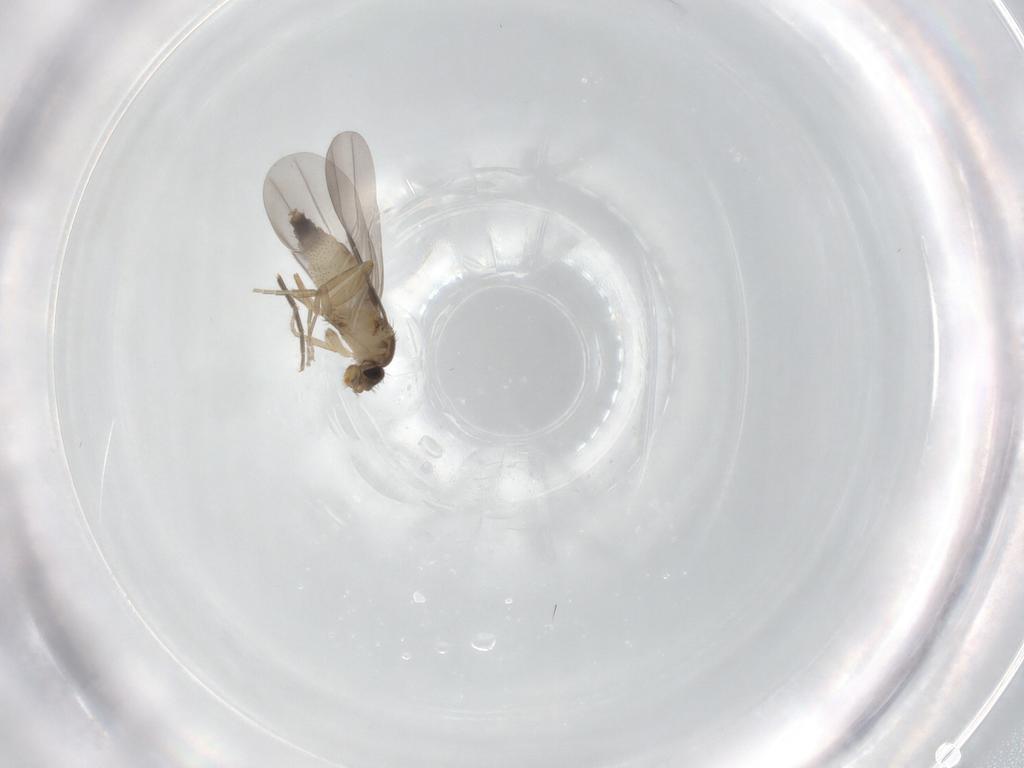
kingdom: Animalia
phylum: Arthropoda
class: Insecta
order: Diptera
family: Phoridae
